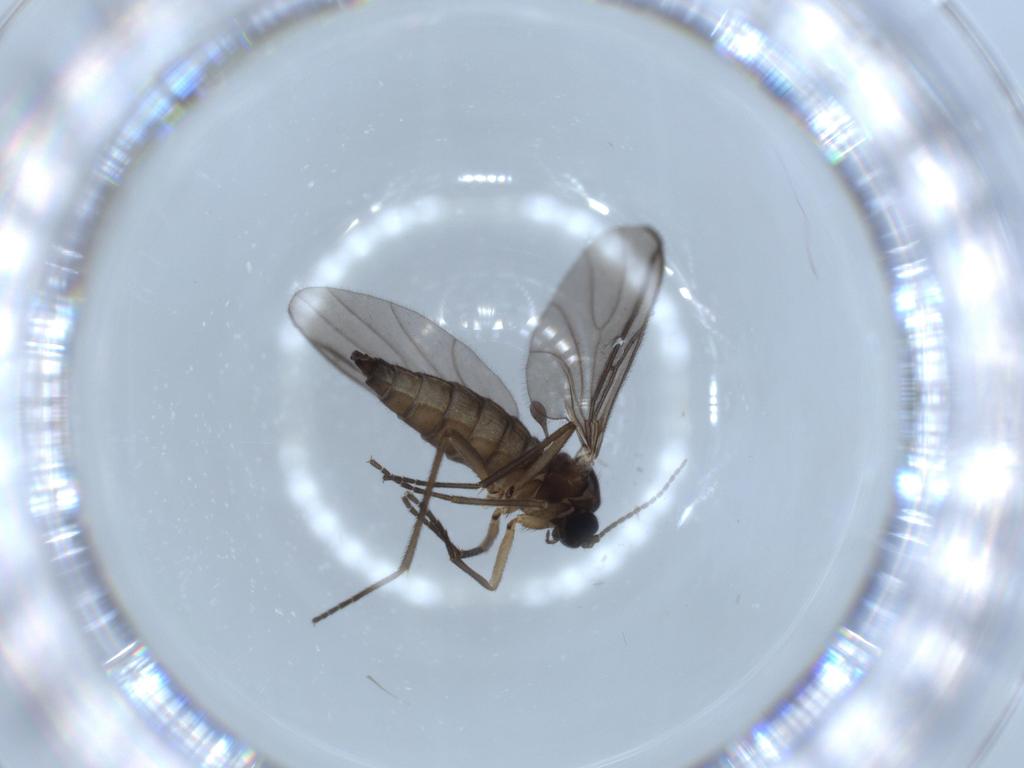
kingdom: Animalia
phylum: Arthropoda
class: Insecta
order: Diptera
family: Sciaridae
